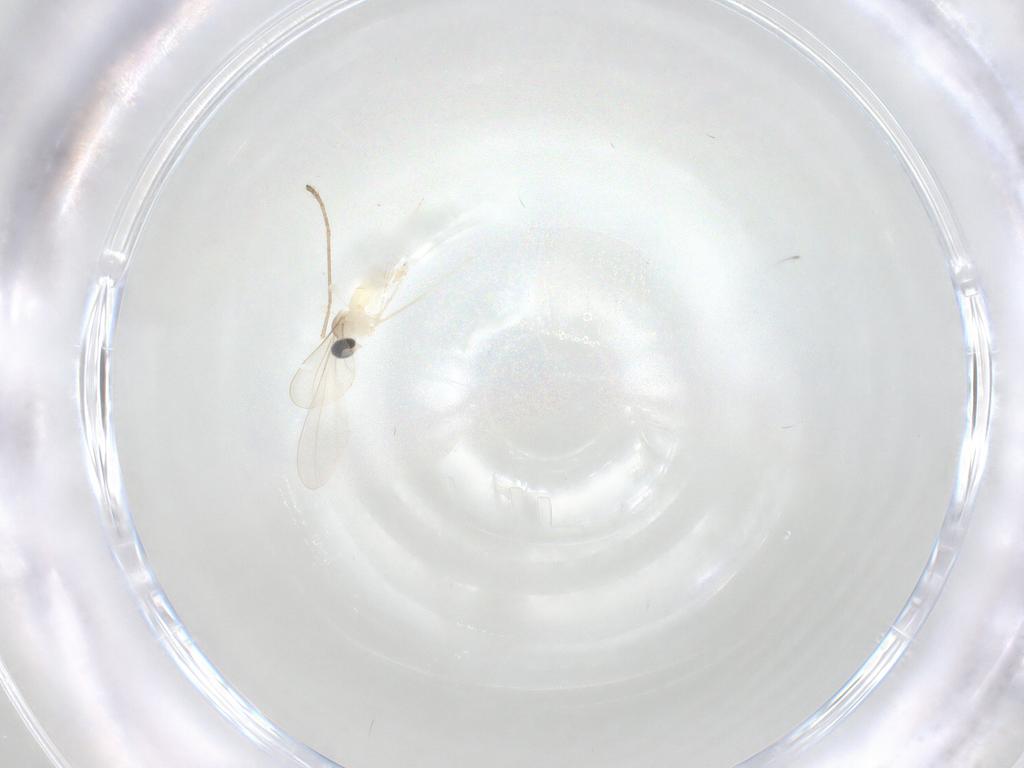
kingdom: Animalia
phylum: Arthropoda
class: Insecta
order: Diptera
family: Cecidomyiidae
